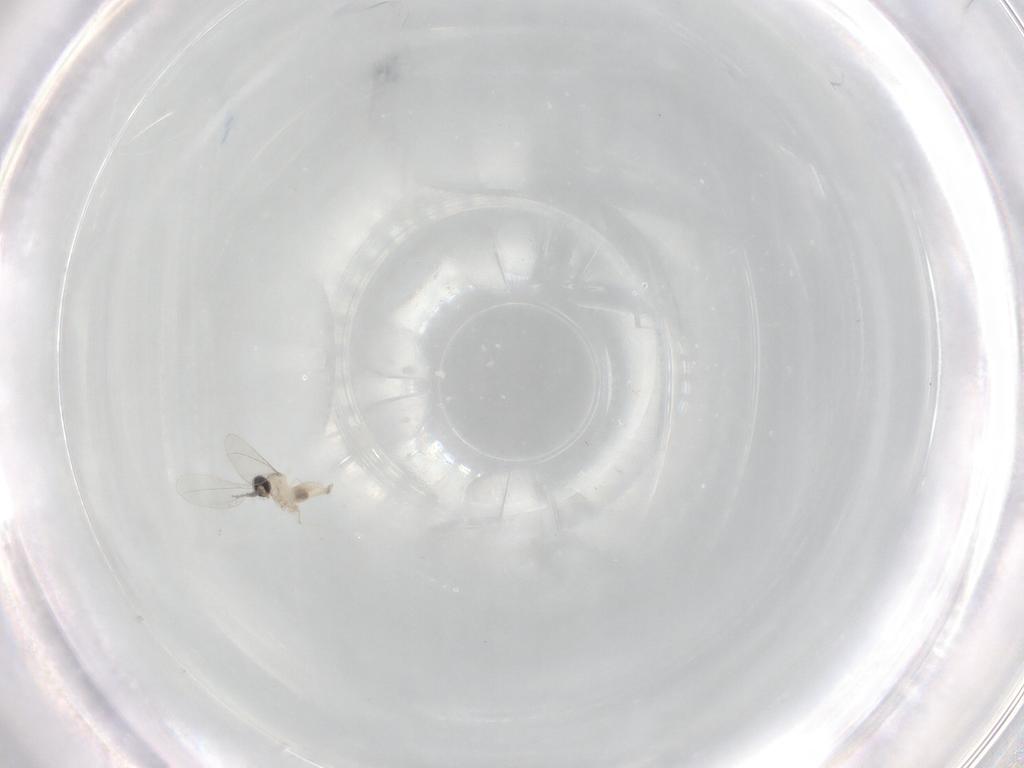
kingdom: Animalia
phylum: Arthropoda
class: Insecta
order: Diptera
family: Cecidomyiidae
